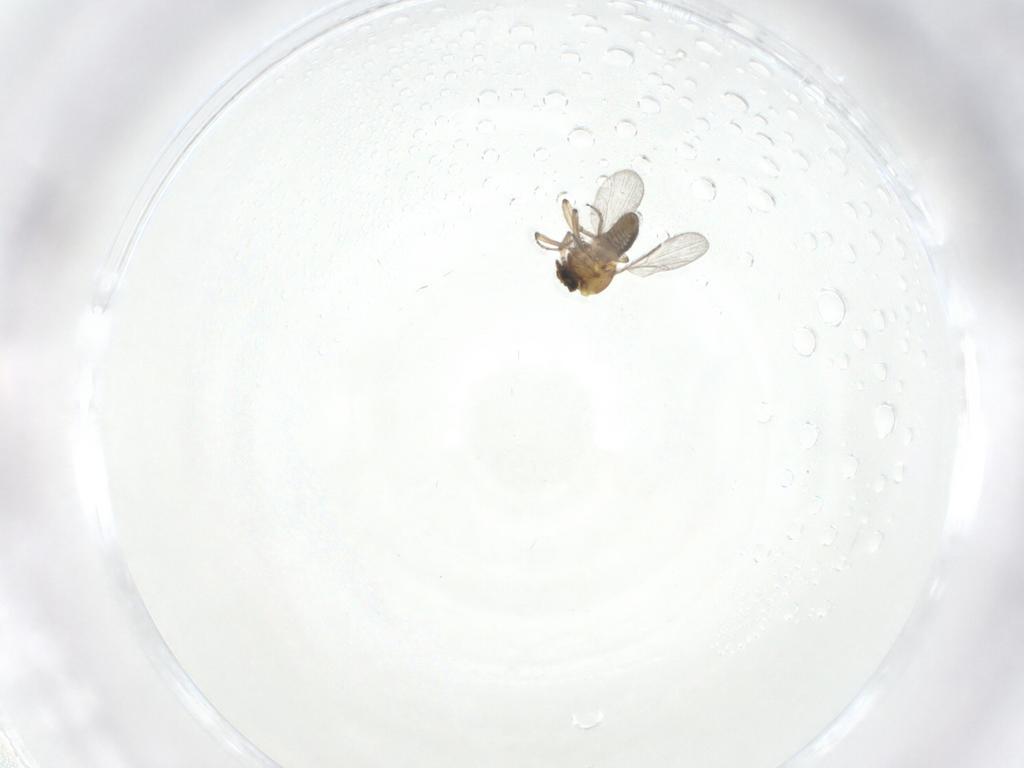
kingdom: Animalia
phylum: Arthropoda
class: Insecta
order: Diptera
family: Ceratopogonidae
